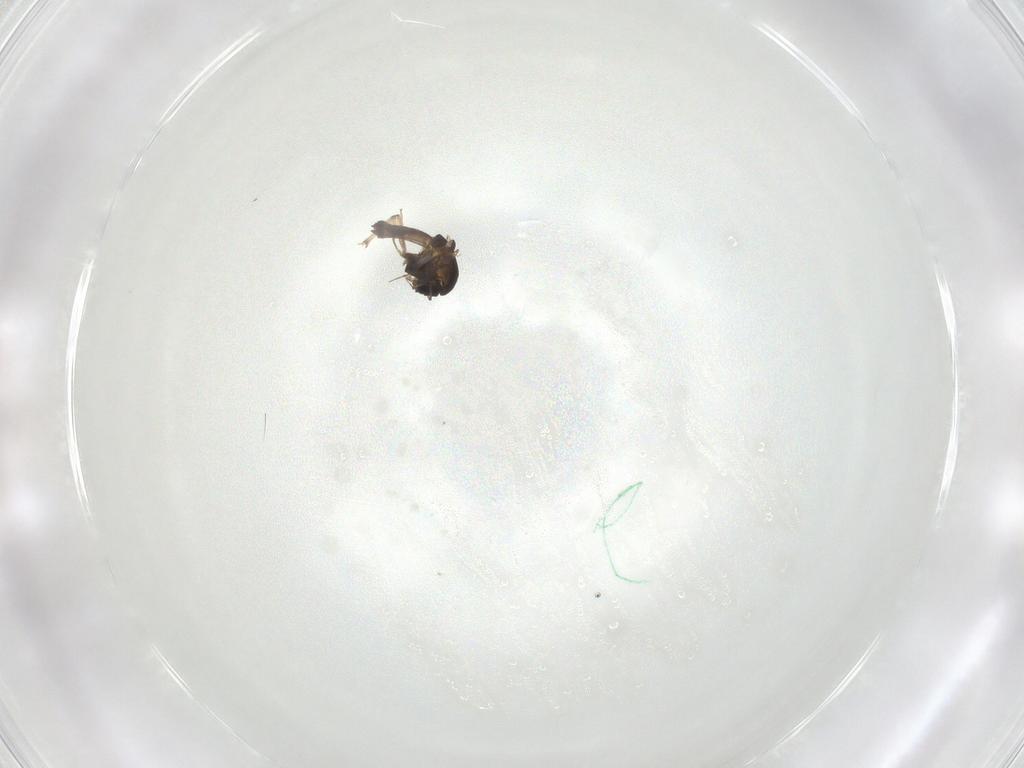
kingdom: Animalia
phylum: Arthropoda
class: Insecta
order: Diptera
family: Chironomidae
